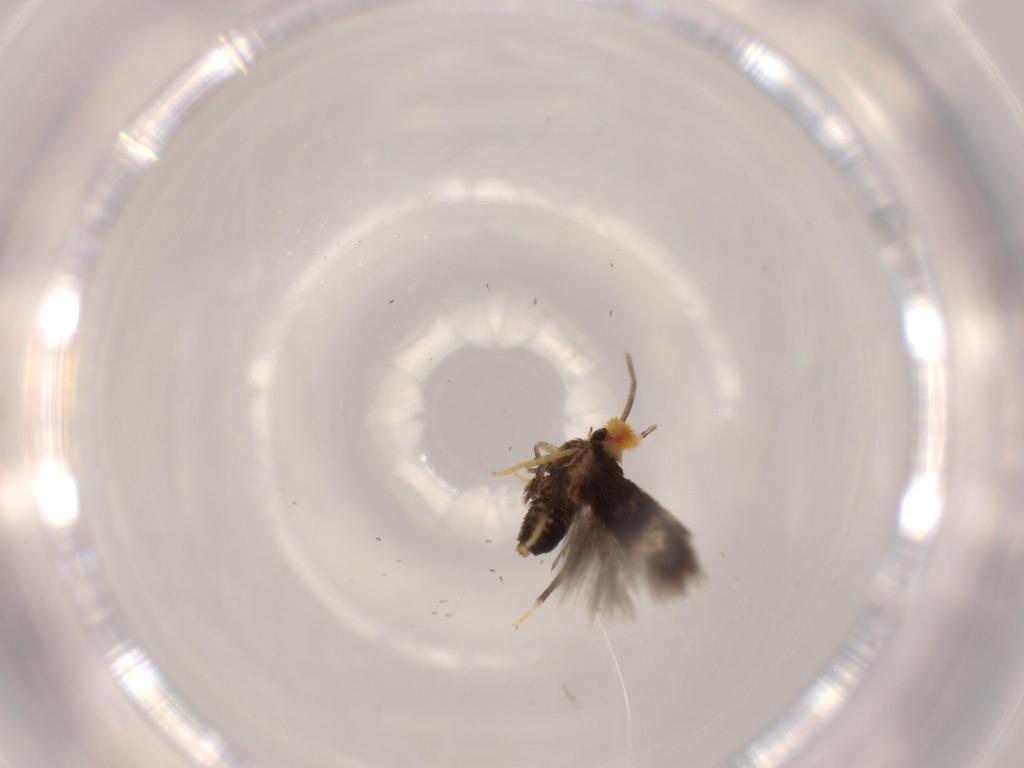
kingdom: Animalia
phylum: Arthropoda
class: Insecta
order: Lepidoptera
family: Nepticulidae
